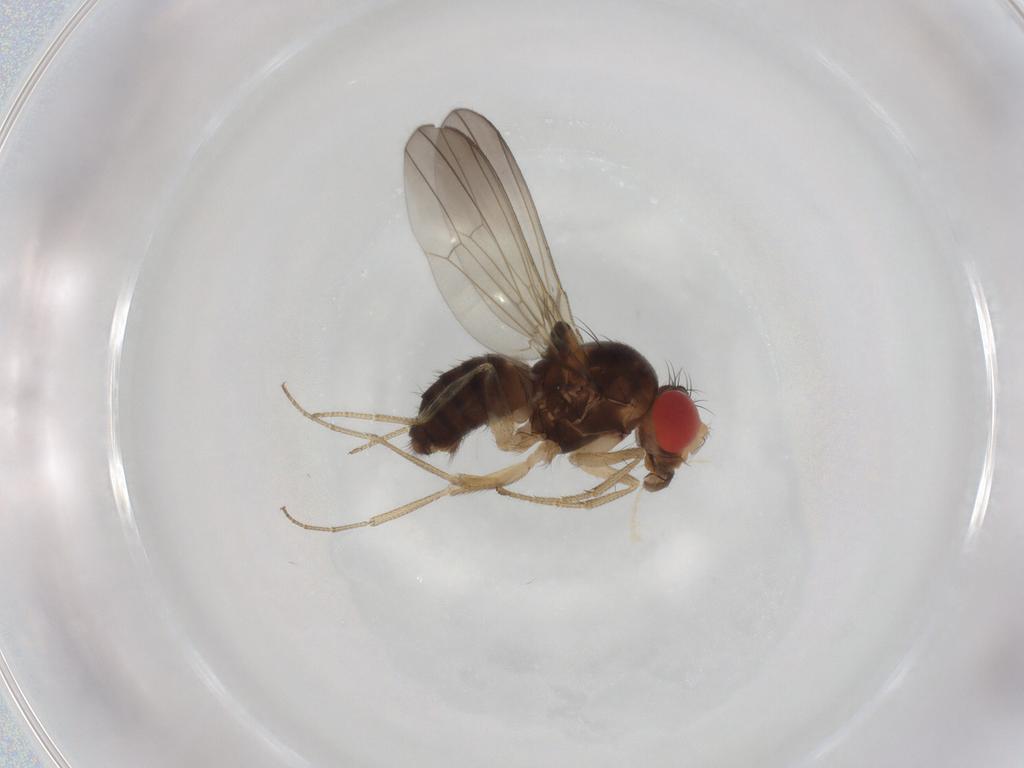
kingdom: Animalia
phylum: Arthropoda
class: Insecta
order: Diptera
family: Drosophilidae
